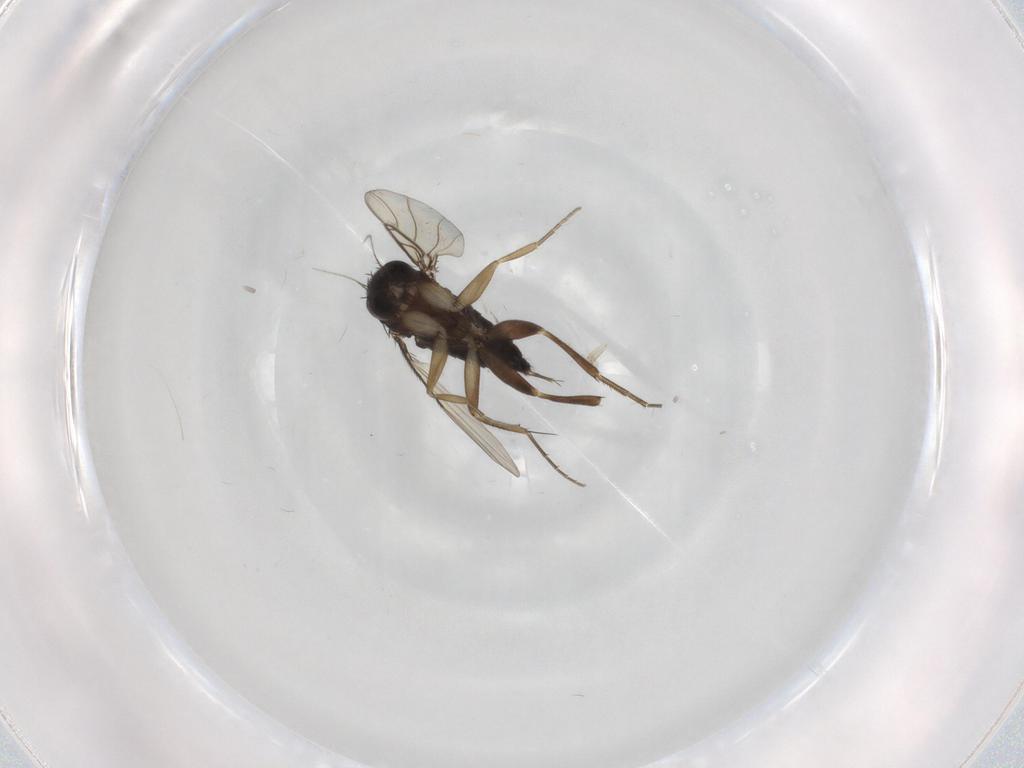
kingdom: Animalia
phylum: Arthropoda
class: Insecta
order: Diptera
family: Phoridae
